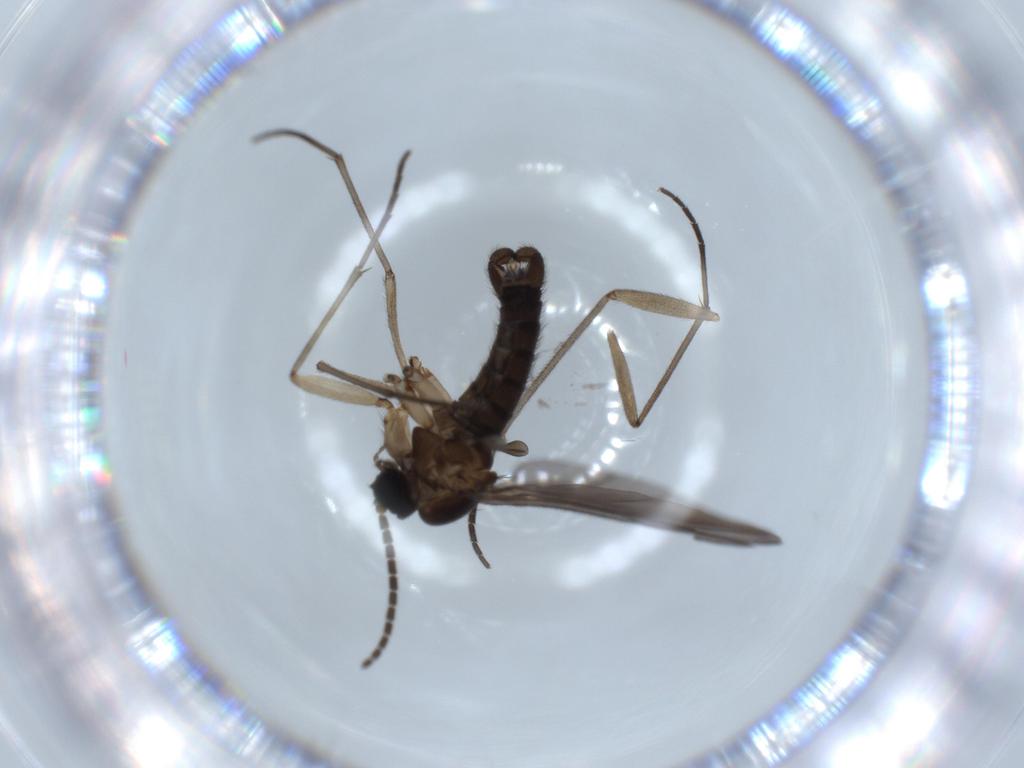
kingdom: Animalia
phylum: Arthropoda
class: Insecta
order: Diptera
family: Sciaridae
